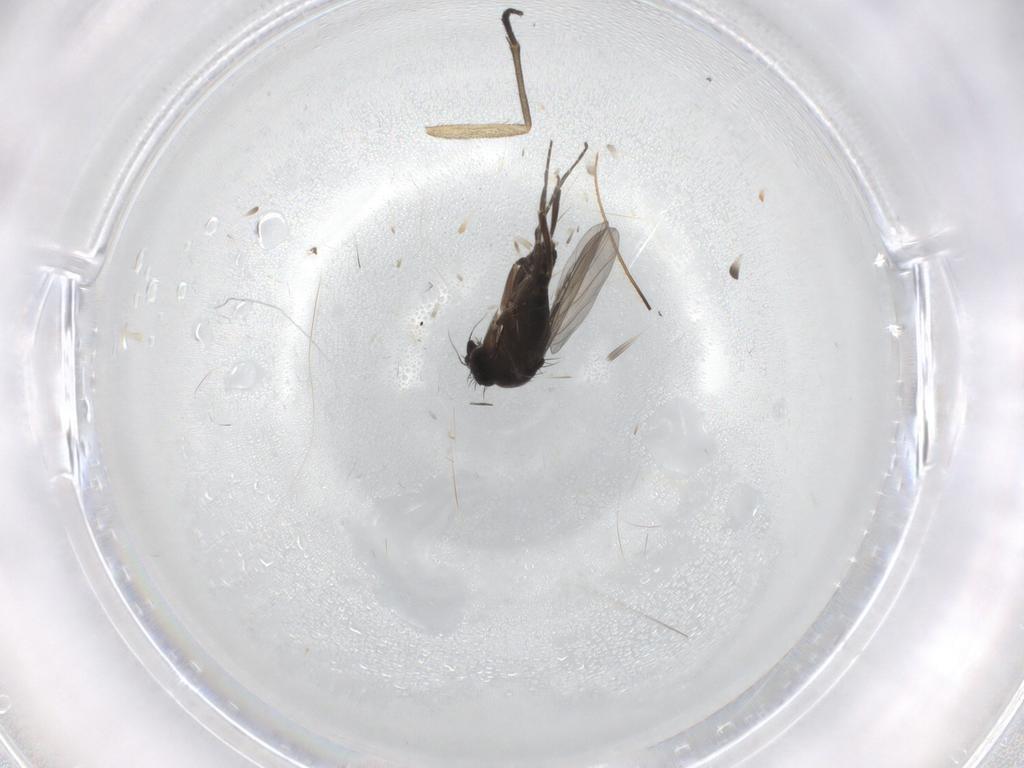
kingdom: Animalia
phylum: Arthropoda
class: Insecta
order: Diptera
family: Phoridae
